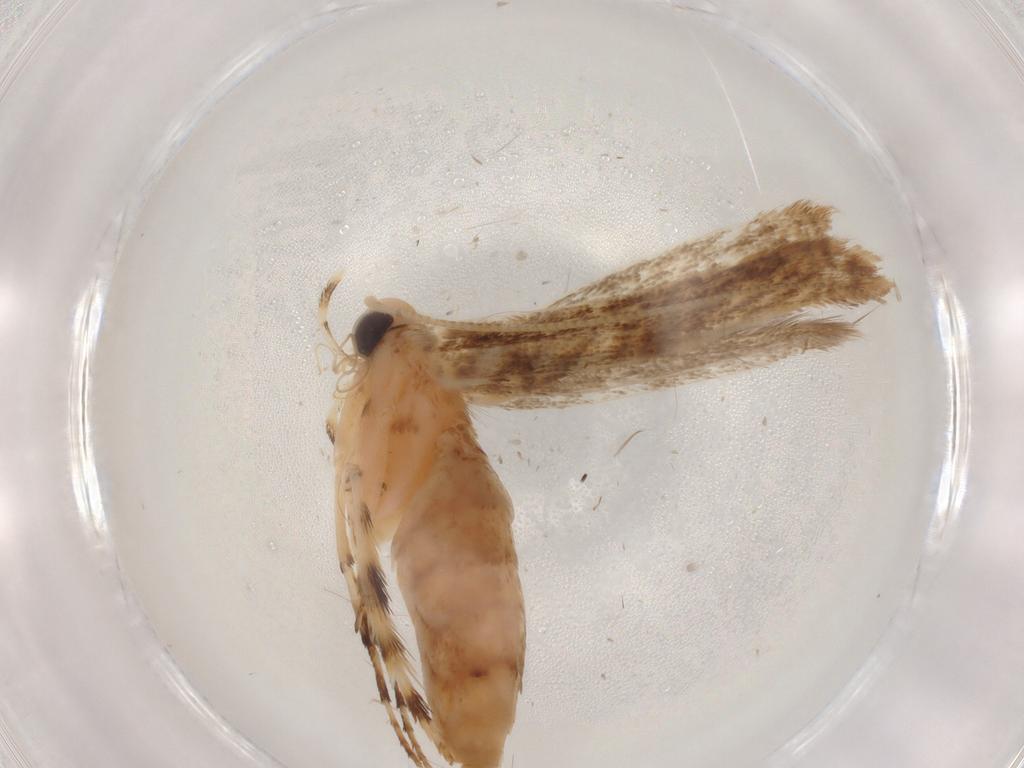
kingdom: Animalia
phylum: Arthropoda
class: Insecta
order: Lepidoptera
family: Gracillariidae
